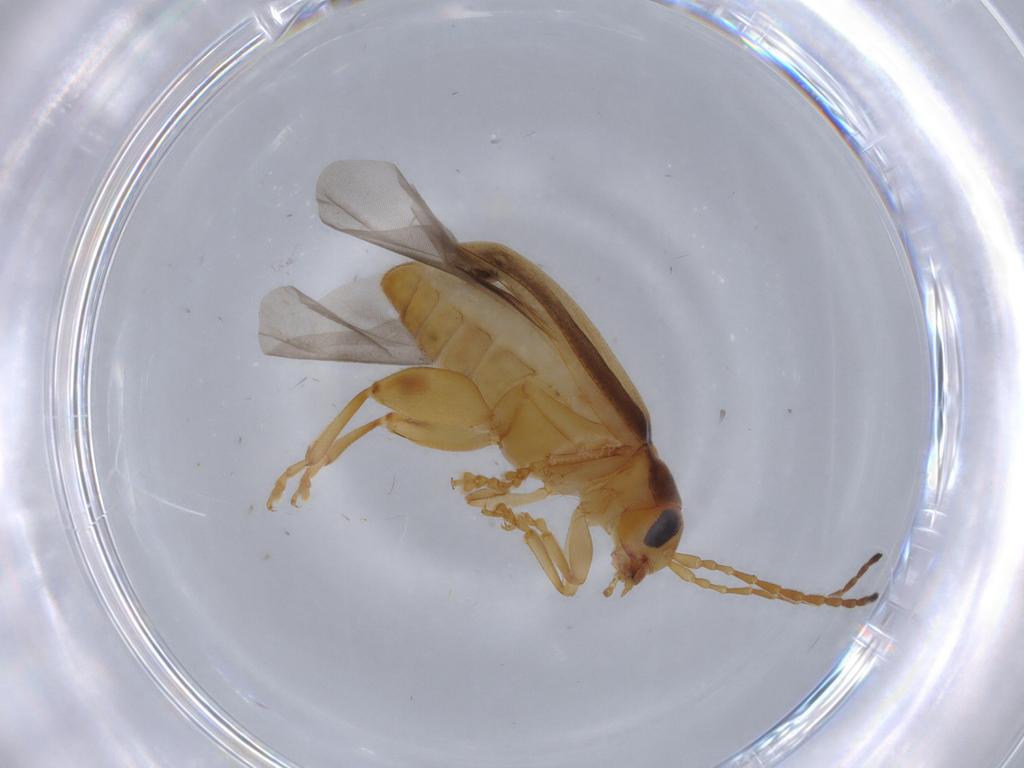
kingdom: Animalia
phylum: Arthropoda
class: Insecta
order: Coleoptera
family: Chrysomelidae
